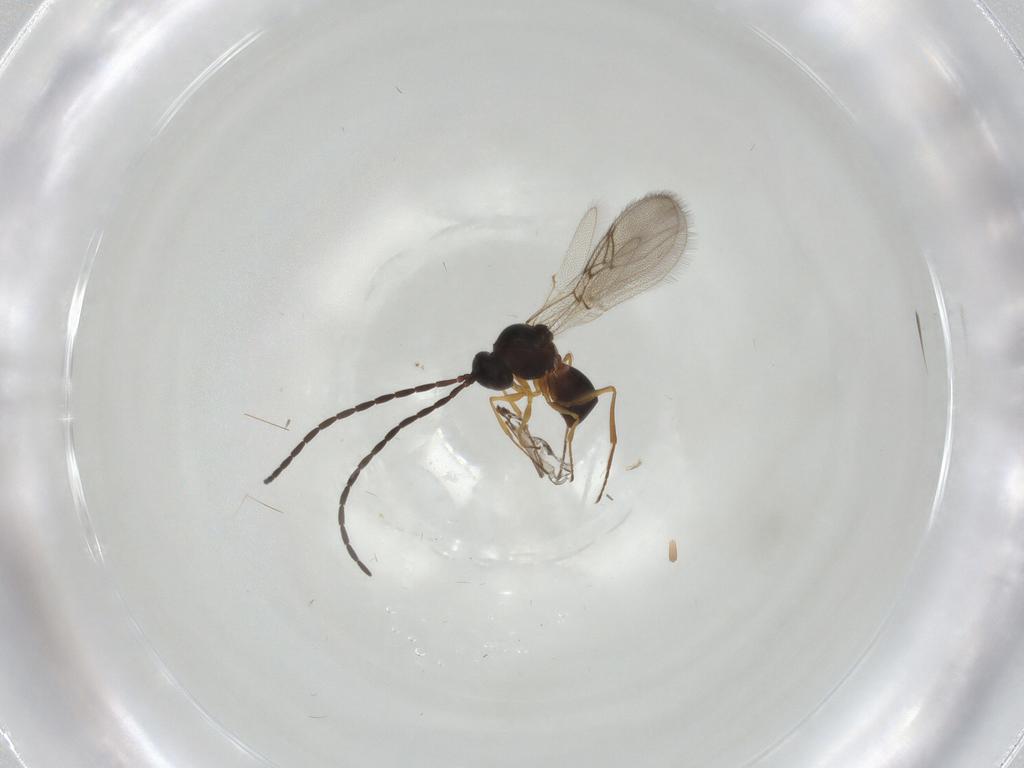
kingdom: Animalia
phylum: Arthropoda
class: Insecta
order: Hymenoptera
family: Figitidae
